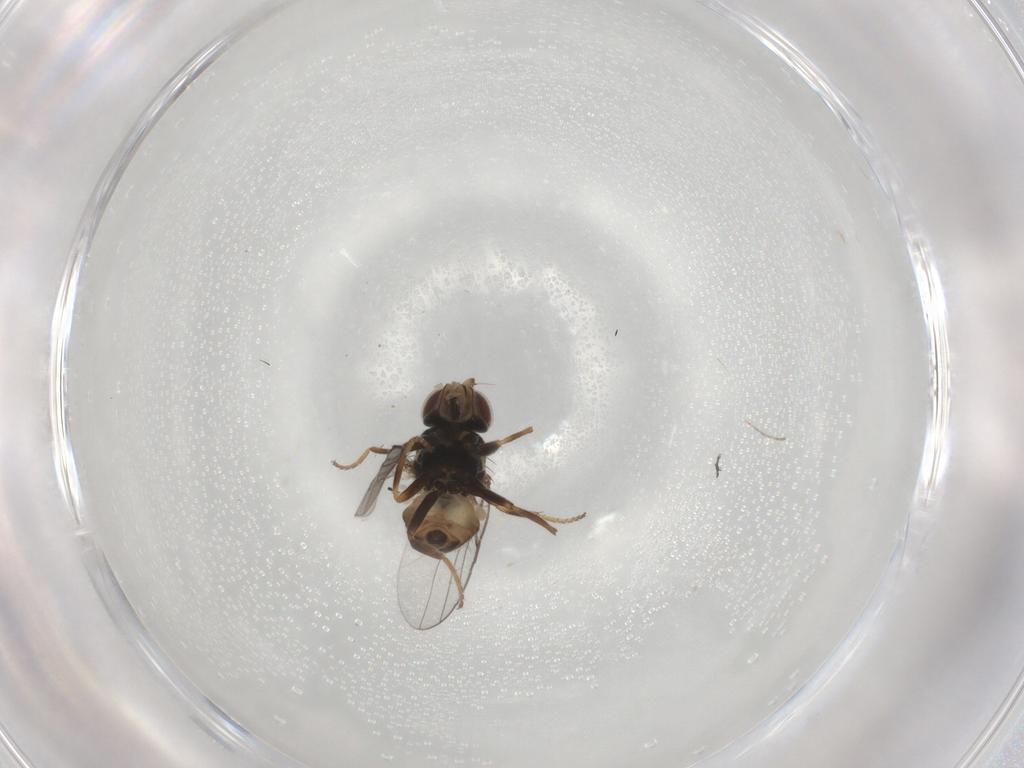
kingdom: Animalia
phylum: Arthropoda
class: Insecta
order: Diptera
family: Chloropidae
